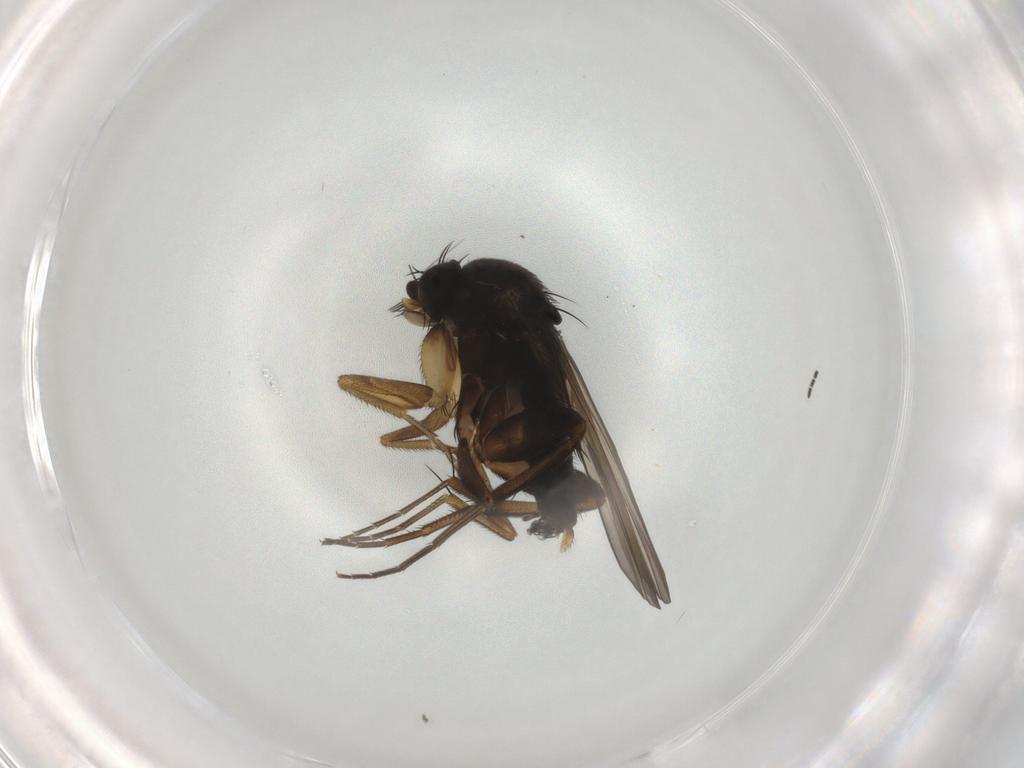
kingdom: Animalia
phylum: Arthropoda
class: Insecta
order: Diptera
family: Phoridae
